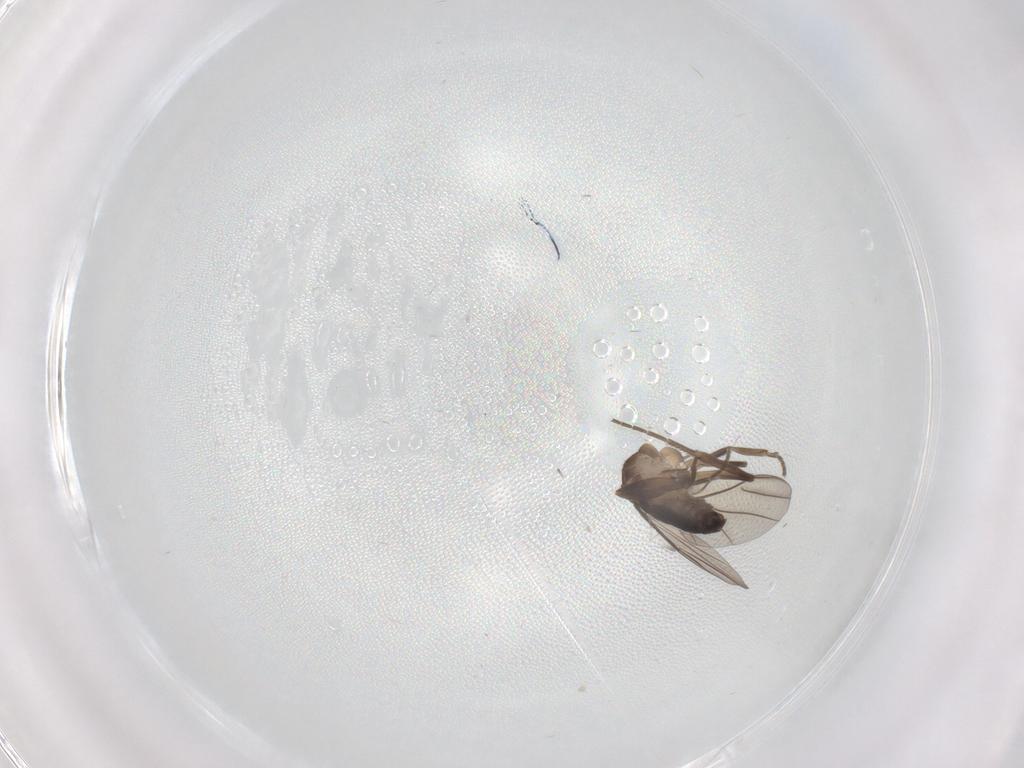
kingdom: Animalia
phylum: Arthropoda
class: Insecta
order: Diptera
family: Phoridae
